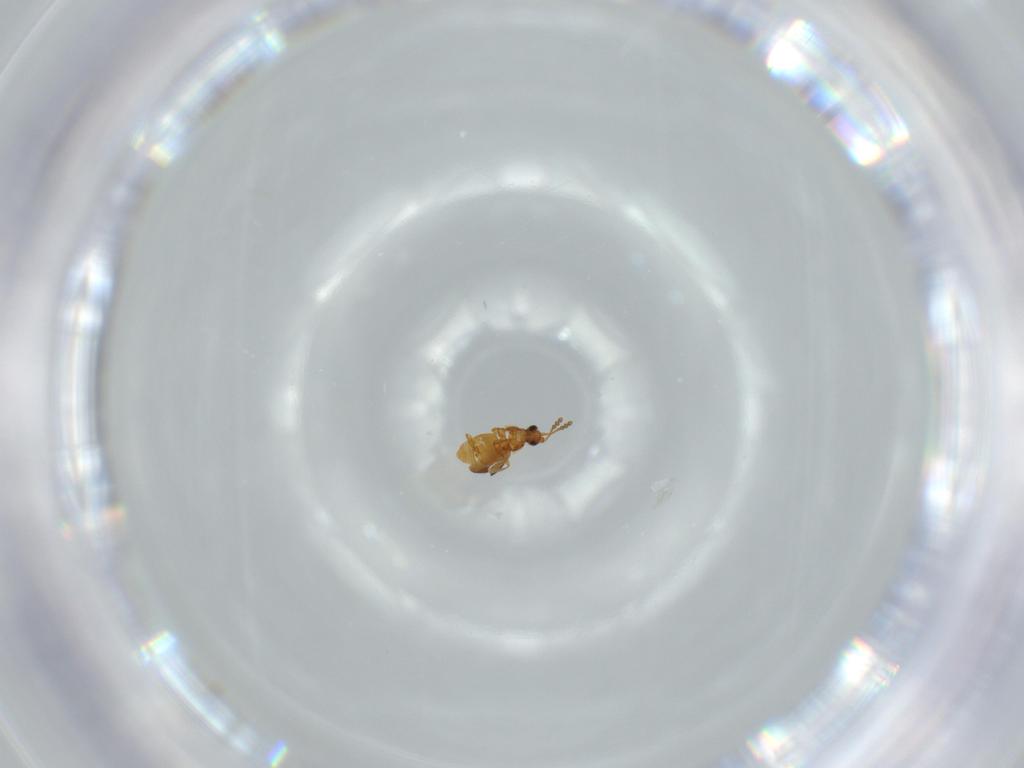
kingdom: Animalia
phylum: Arthropoda
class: Insecta
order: Coleoptera
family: Staphylinidae
